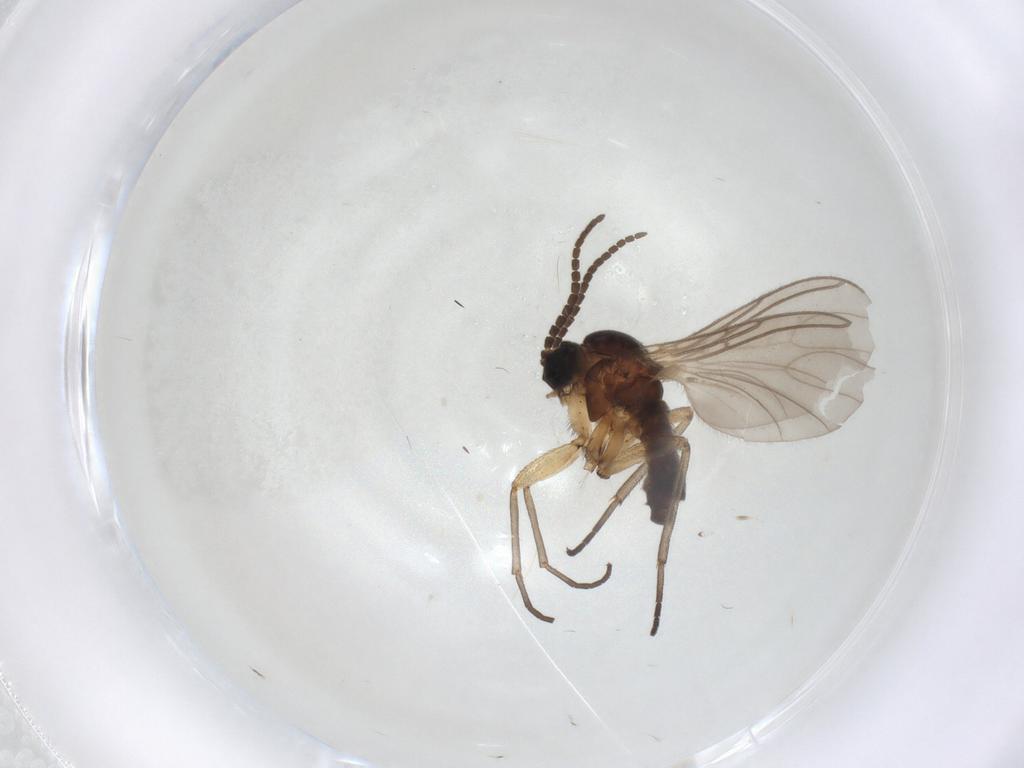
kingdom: Animalia
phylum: Arthropoda
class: Insecta
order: Diptera
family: Sciaridae
